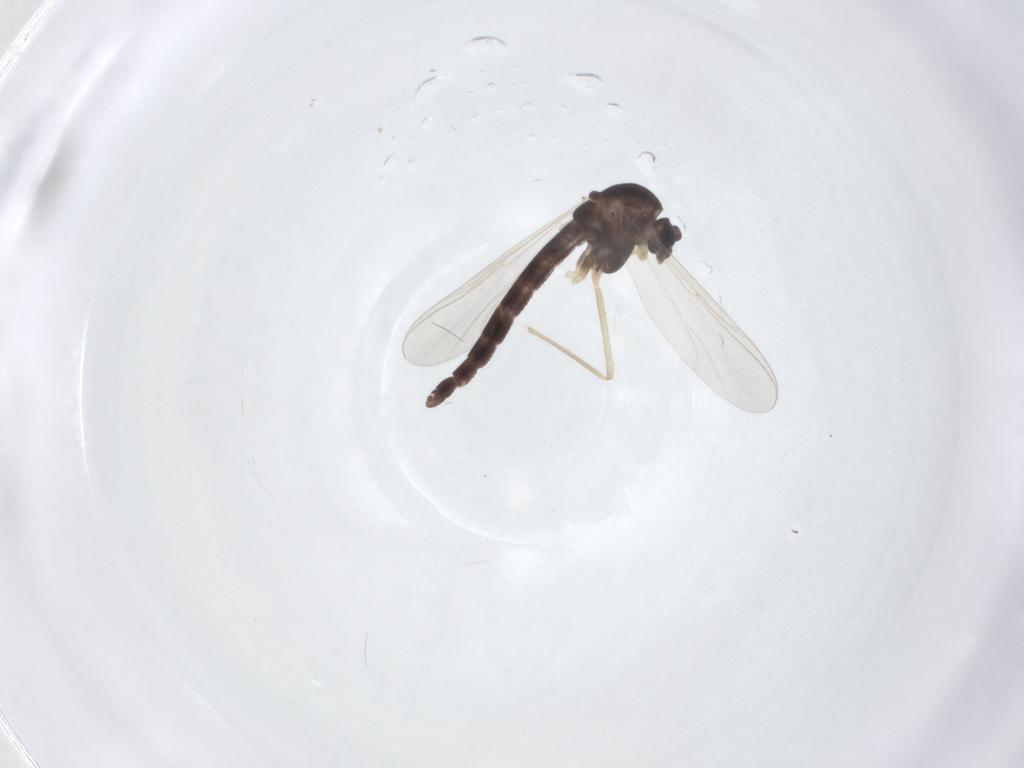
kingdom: Animalia
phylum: Arthropoda
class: Insecta
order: Diptera
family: Chironomidae
